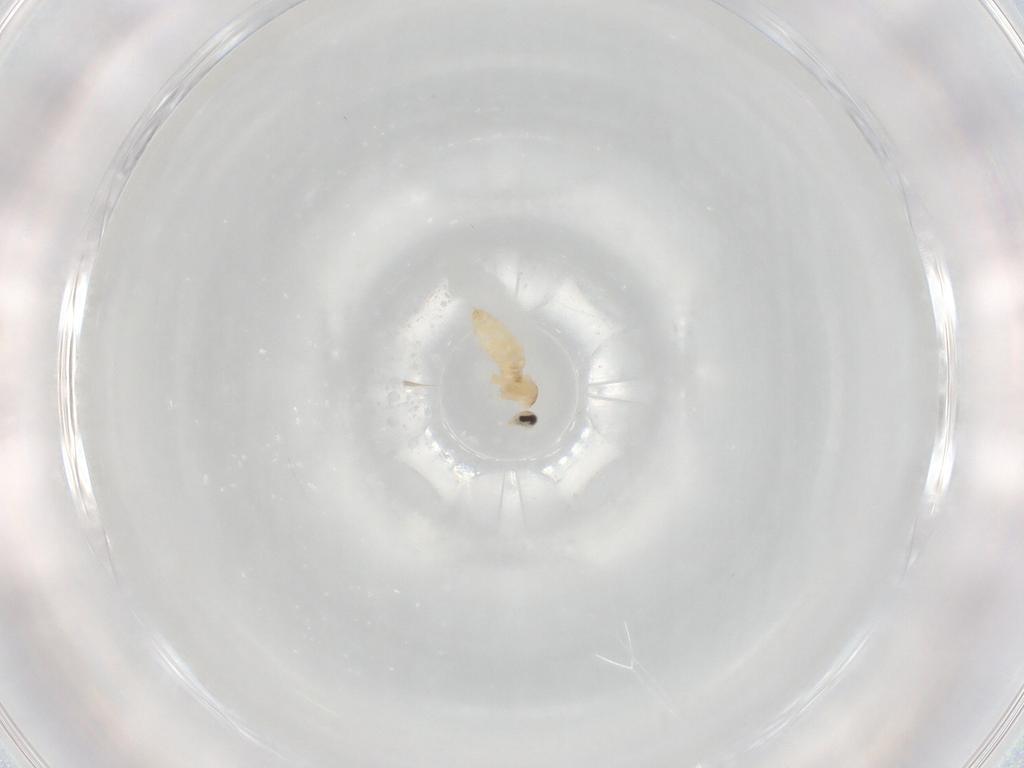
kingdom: Animalia
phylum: Arthropoda
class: Insecta
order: Diptera
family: Cecidomyiidae
